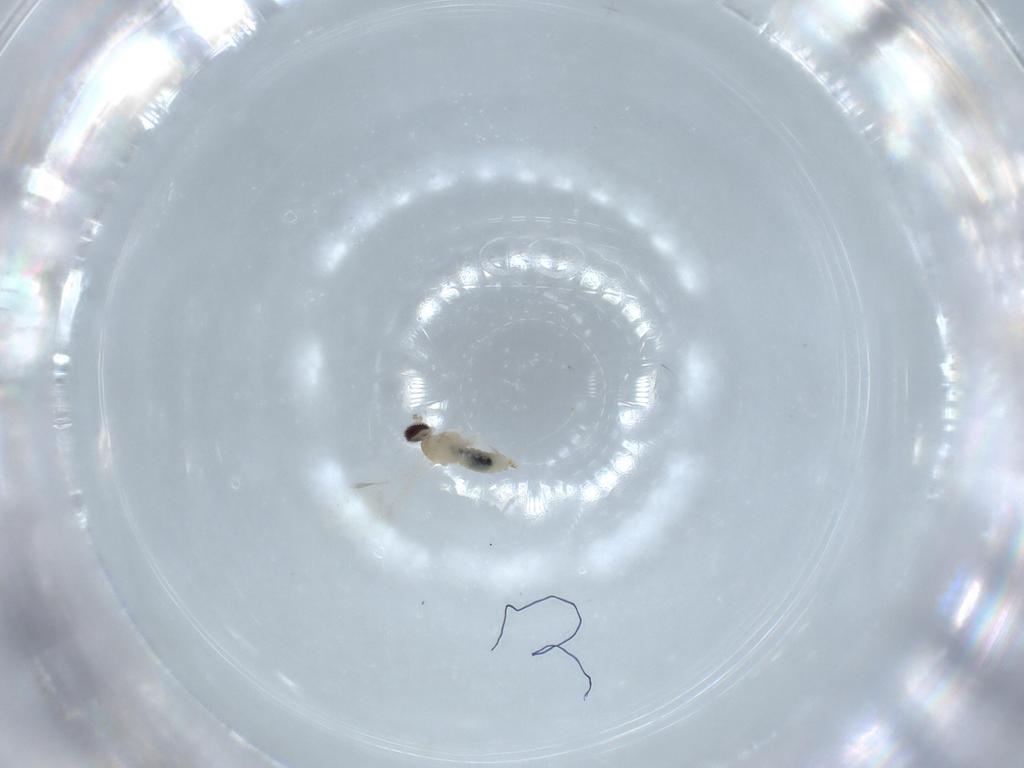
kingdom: Animalia
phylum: Arthropoda
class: Insecta
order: Diptera
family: Cecidomyiidae
